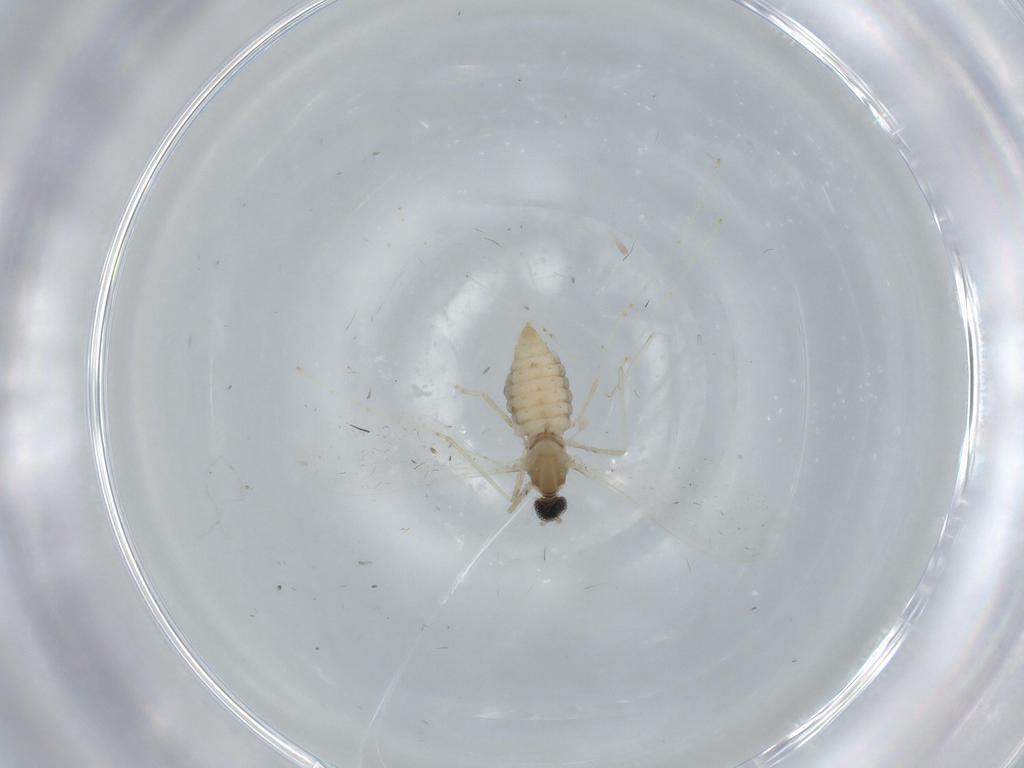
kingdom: Animalia
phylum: Arthropoda
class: Insecta
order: Diptera
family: Cecidomyiidae
